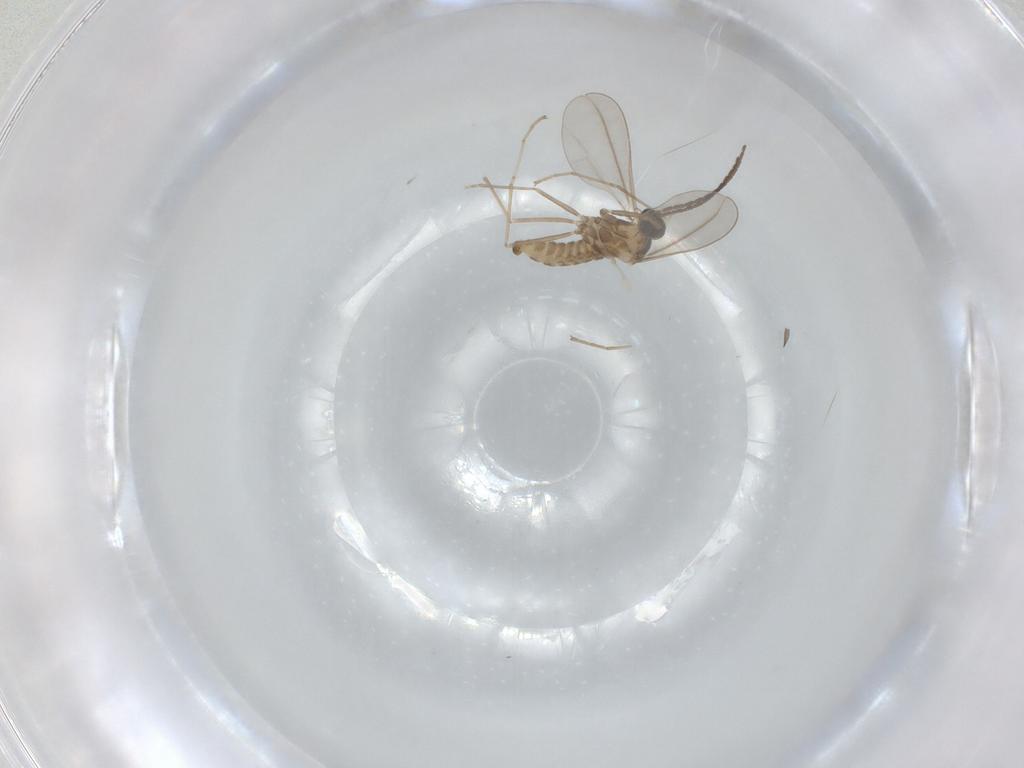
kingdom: Animalia
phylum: Arthropoda
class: Insecta
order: Diptera
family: Cecidomyiidae
